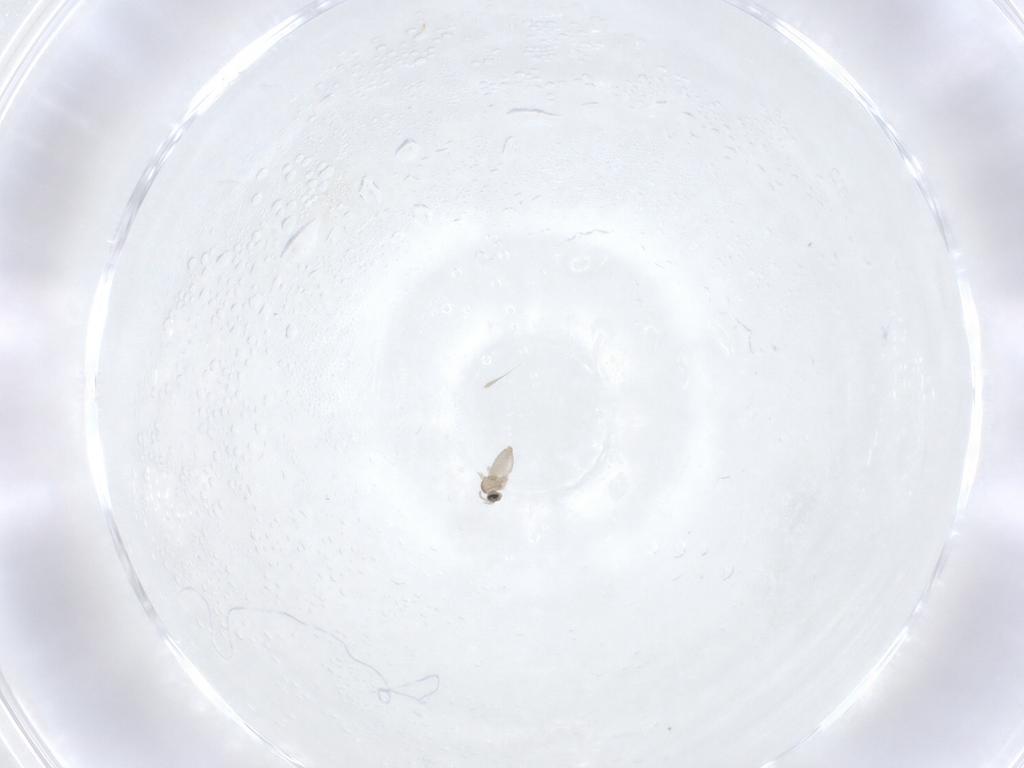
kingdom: Animalia
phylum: Arthropoda
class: Insecta
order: Diptera
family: Cecidomyiidae
